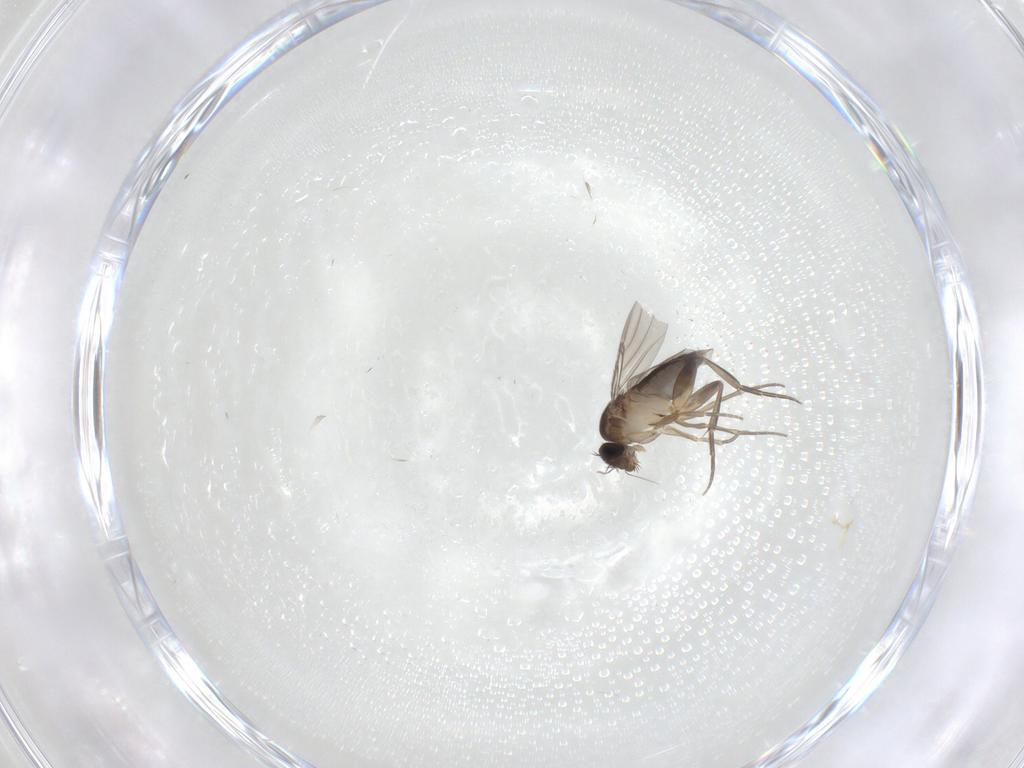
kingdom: Animalia
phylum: Arthropoda
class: Insecta
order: Diptera
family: Phoridae
